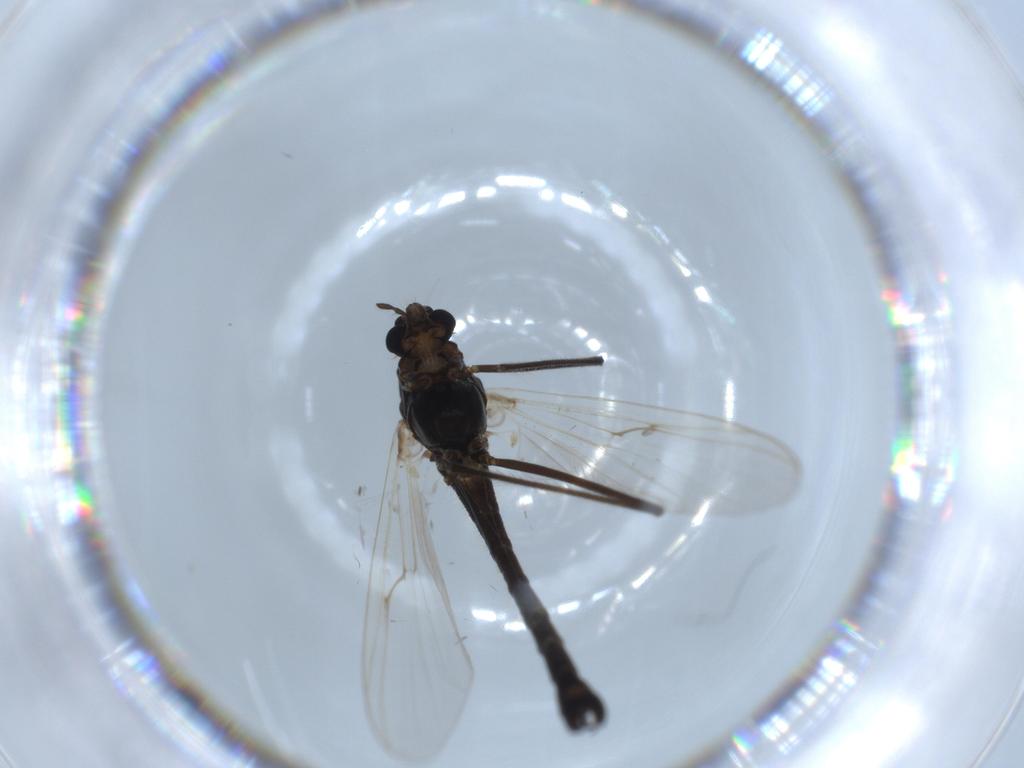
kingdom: Animalia
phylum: Arthropoda
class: Insecta
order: Diptera
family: Chironomidae
